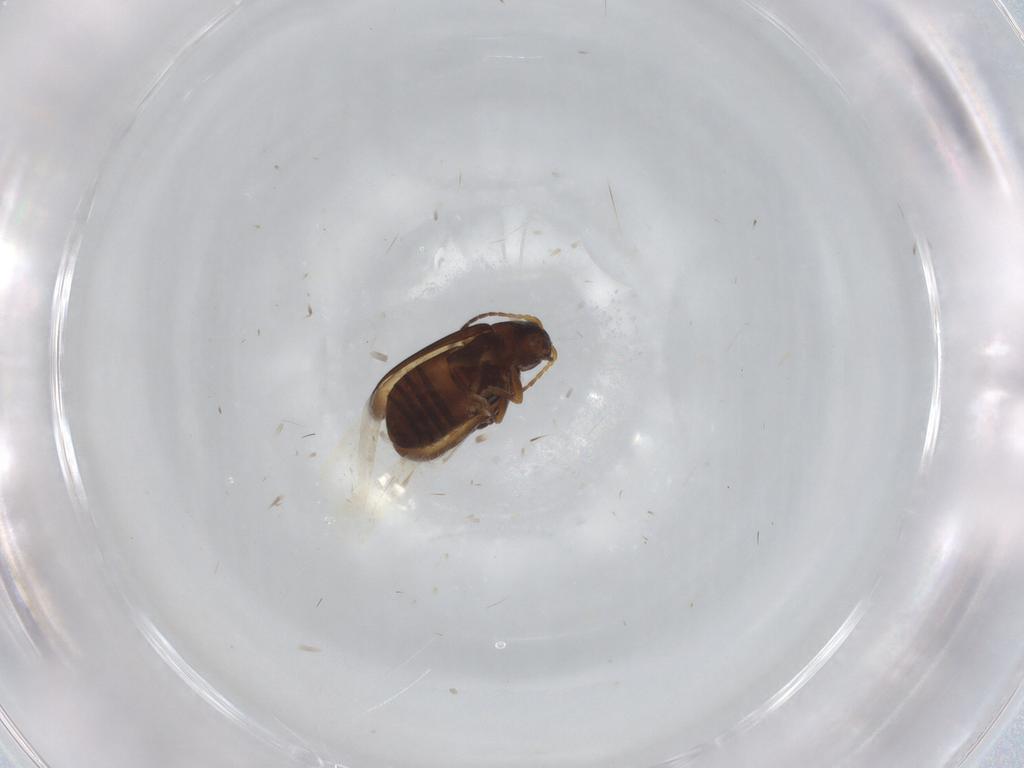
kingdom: Animalia
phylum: Arthropoda
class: Insecta
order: Coleoptera
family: Chrysomelidae
